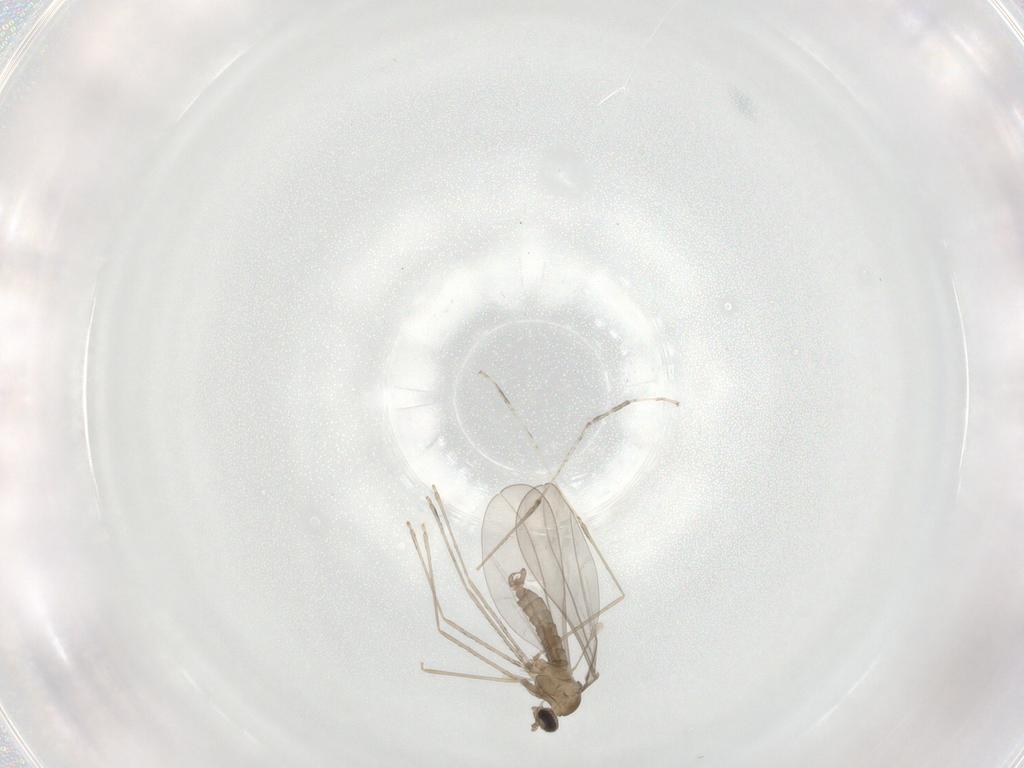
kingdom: Animalia
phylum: Arthropoda
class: Insecta
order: Diptera
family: Cecidomyiidae
